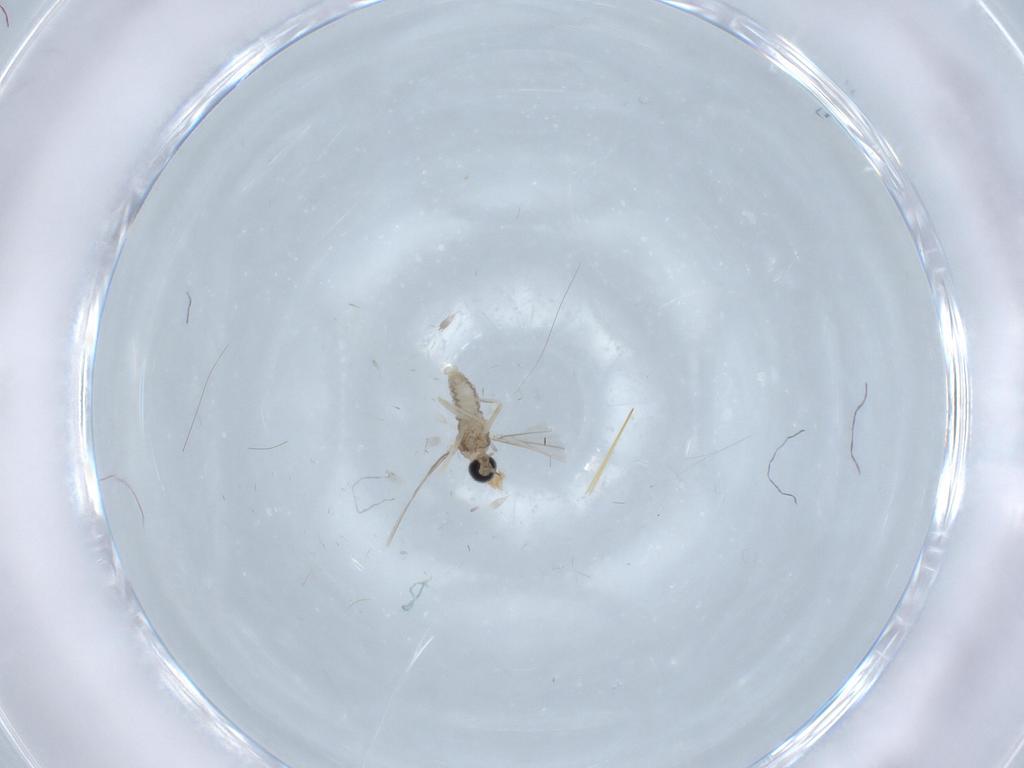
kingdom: Animalia
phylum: Arthropoda
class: Insecta
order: Diptera
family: Cecidomyiidae
